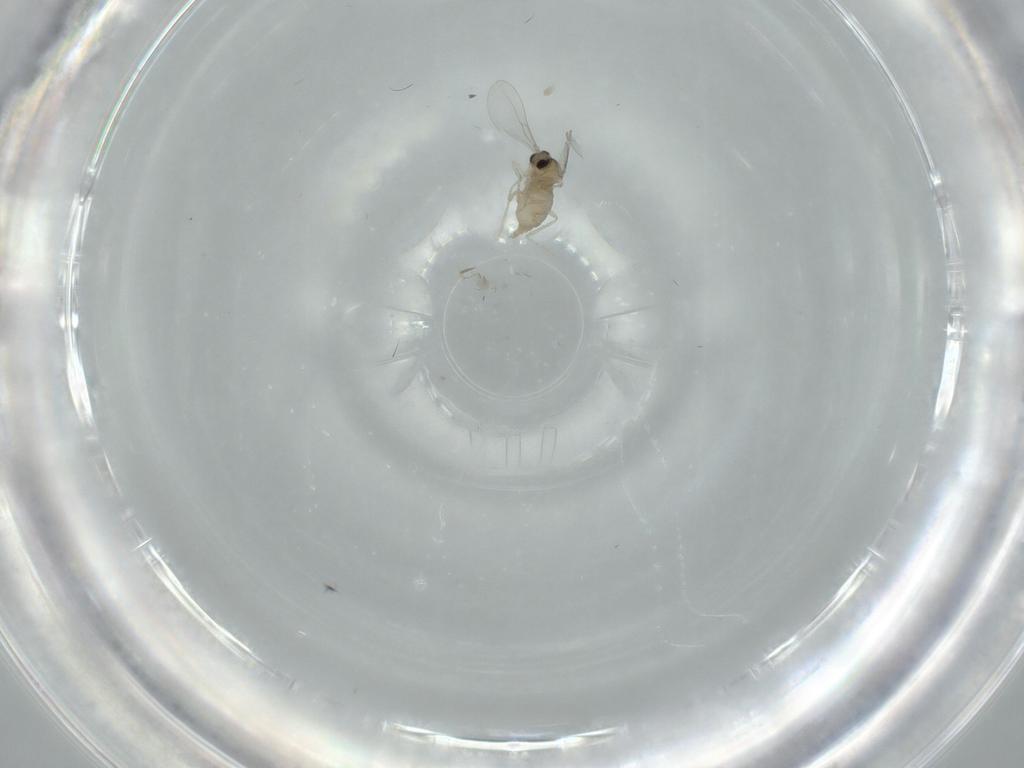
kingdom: Animalia
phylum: Arthropoda
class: Insecta
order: Diptera
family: Cecidomyiidae
